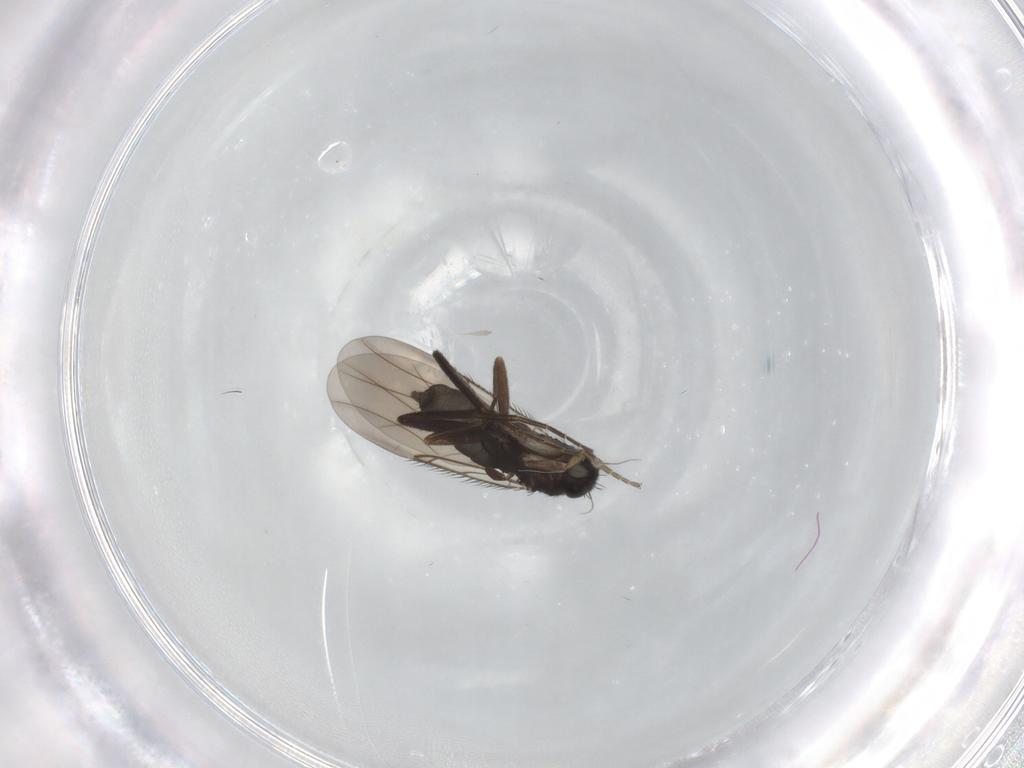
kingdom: Animalia
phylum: Arthropoda
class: Insecta
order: Diptera
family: Phoridae
